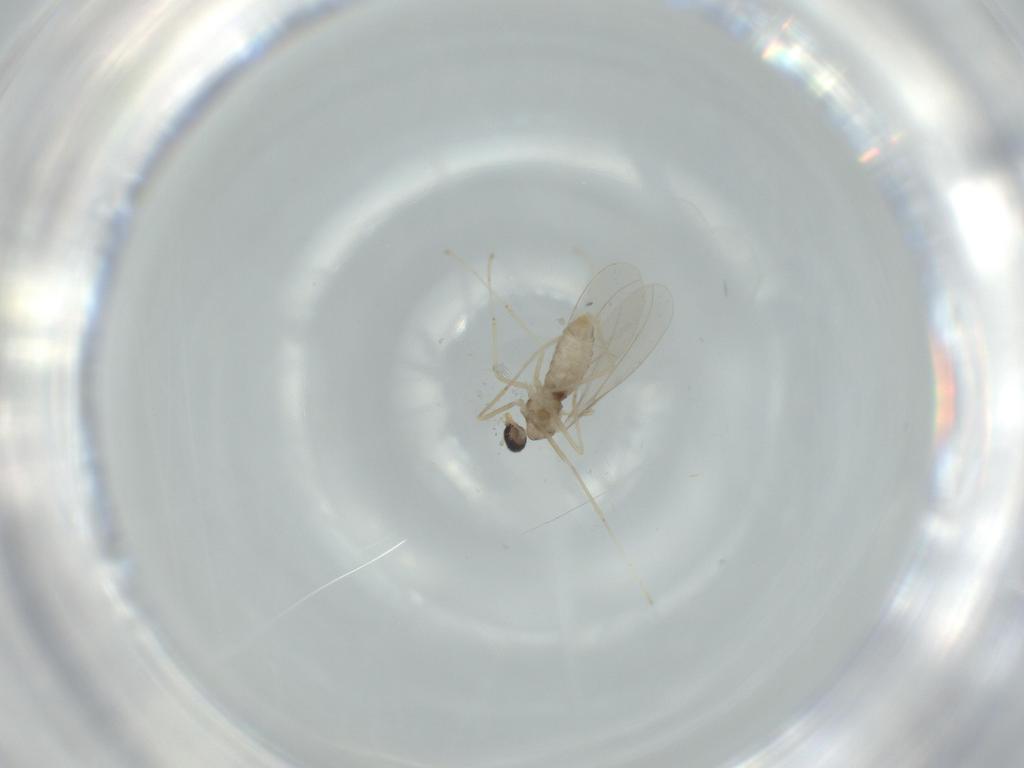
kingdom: Animalia
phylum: Arthropoda
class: Insecta
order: Diptera
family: Cecidomyiidae
